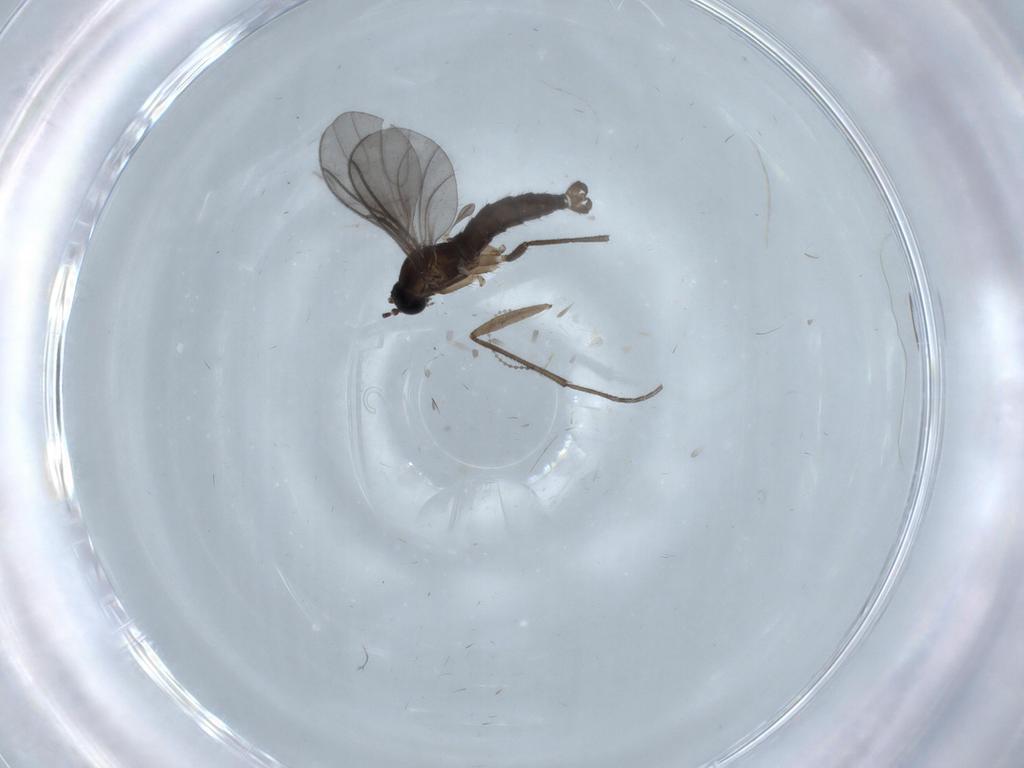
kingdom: Animalia
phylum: Arthropoda
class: Insecta
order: Diptera
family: Sciaridae
